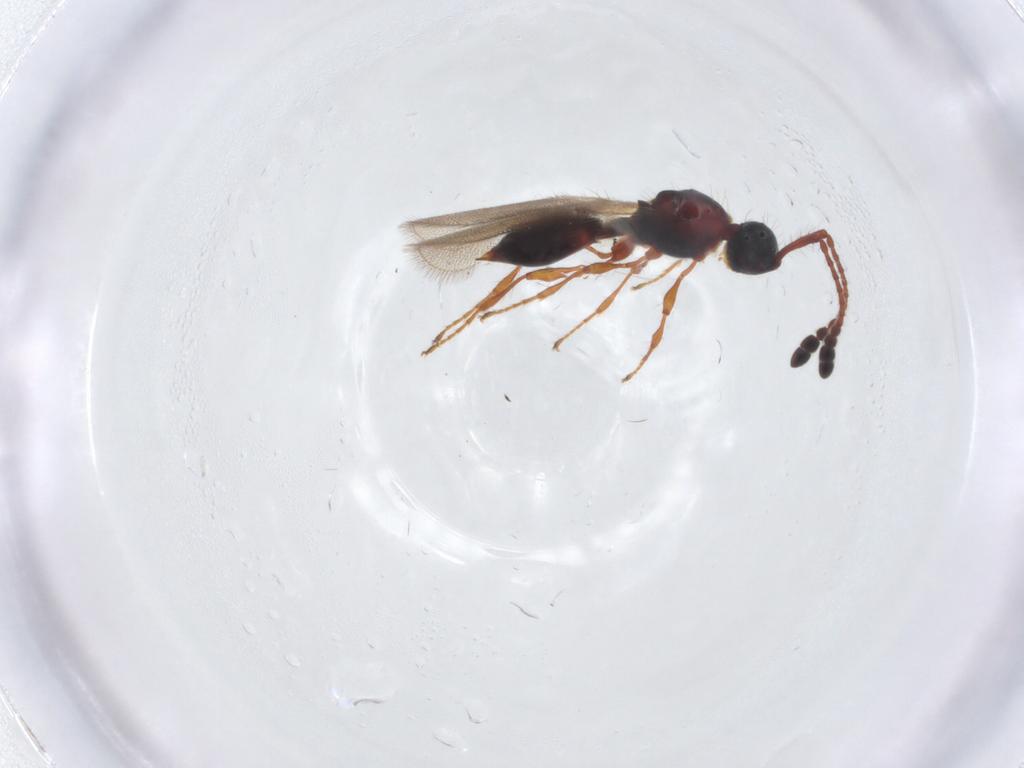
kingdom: Animalia
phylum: Arthropoda
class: Insecta
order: Hymenoptera
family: Diapriidae
